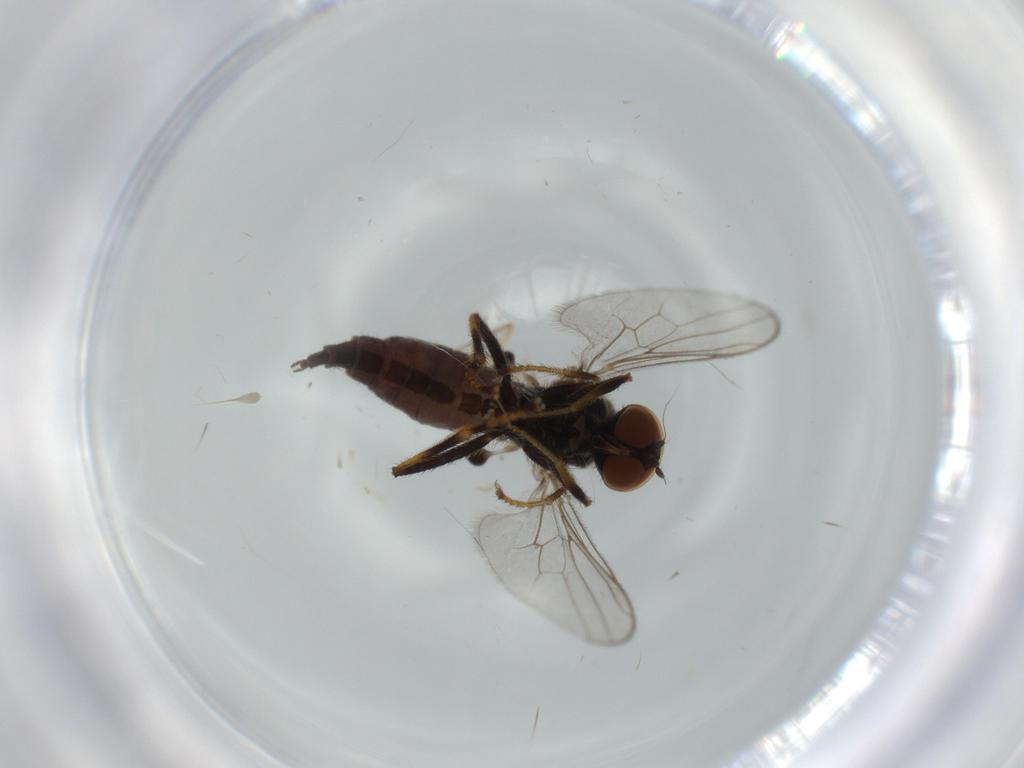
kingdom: Animalia
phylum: Arthropoda
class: Insecta
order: Diptera
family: Hybotidae
